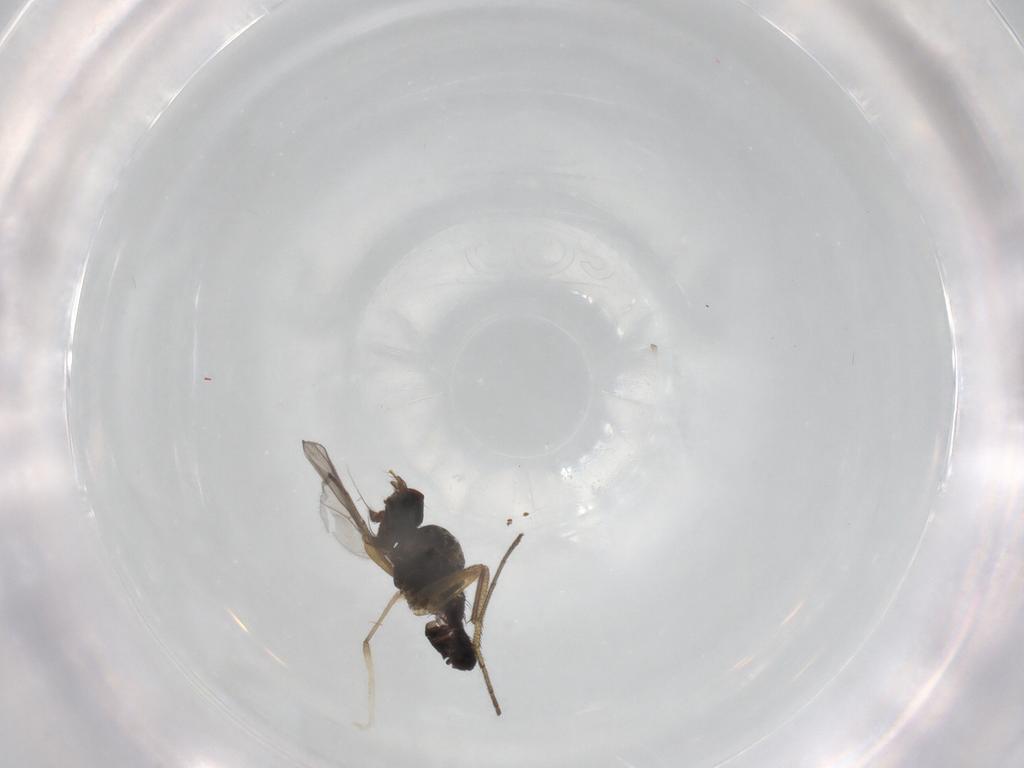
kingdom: Animalia
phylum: Arthropoda
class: Insecta
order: Diptera
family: Dolichopodidae
